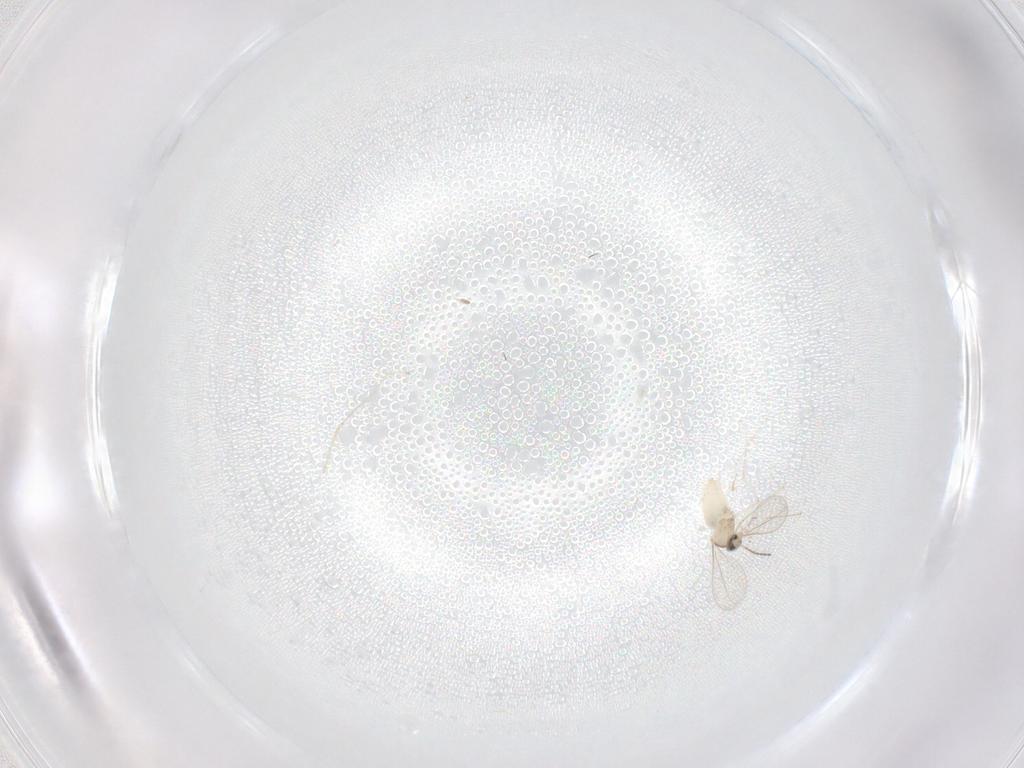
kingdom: Animalia
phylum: Arthropoda
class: Insecta
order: Diptera
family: Cecidomyiidae
